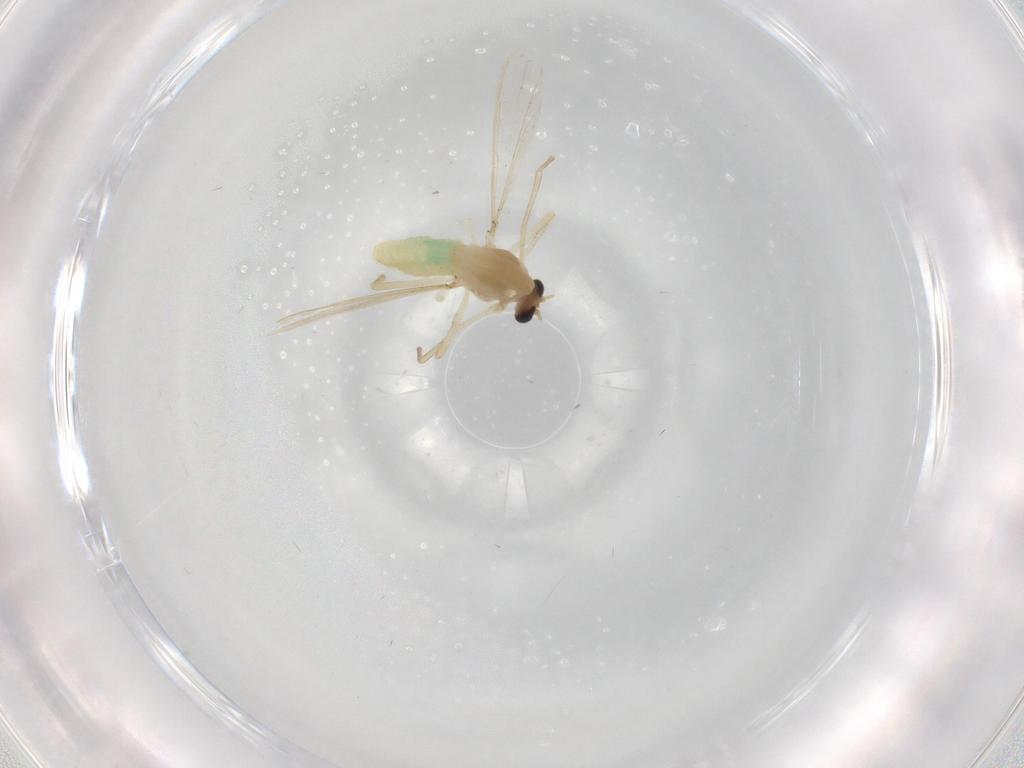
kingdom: Animalia
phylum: Arthropoda
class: Insecta
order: Diptera
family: Chironomidae
